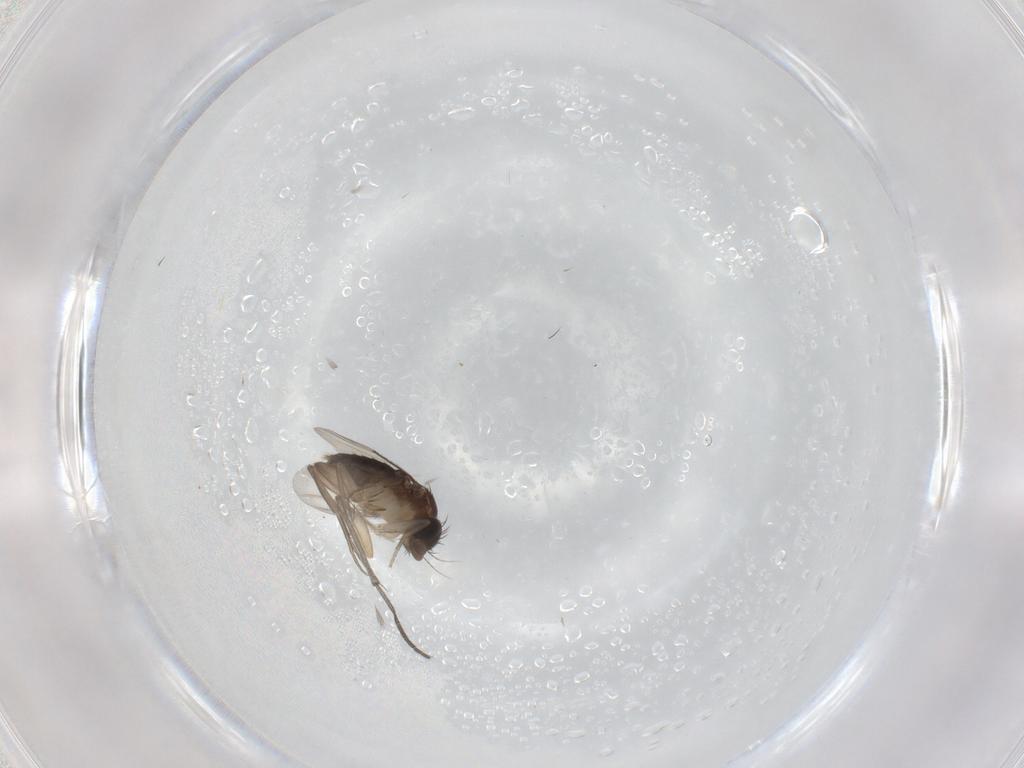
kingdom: Animalia
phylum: Arthropoda
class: Insecta
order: Diptera
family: Phoridae
